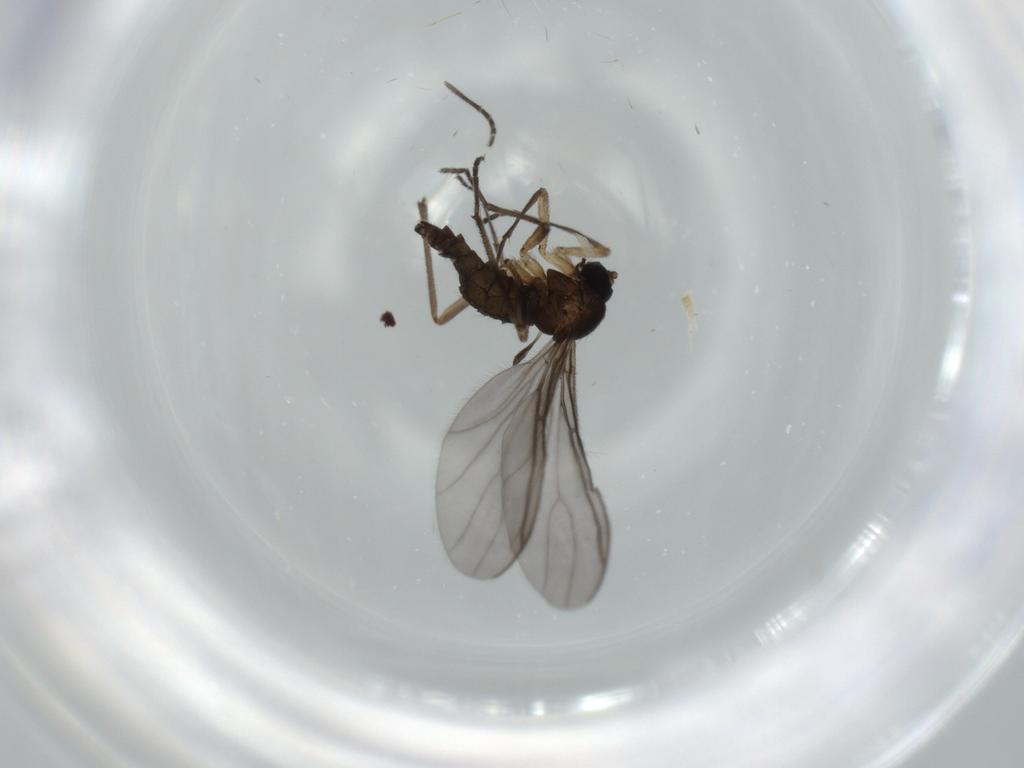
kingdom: Animalia
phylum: Arthropoda
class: Insecta
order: Diptera
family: Sciaridae
